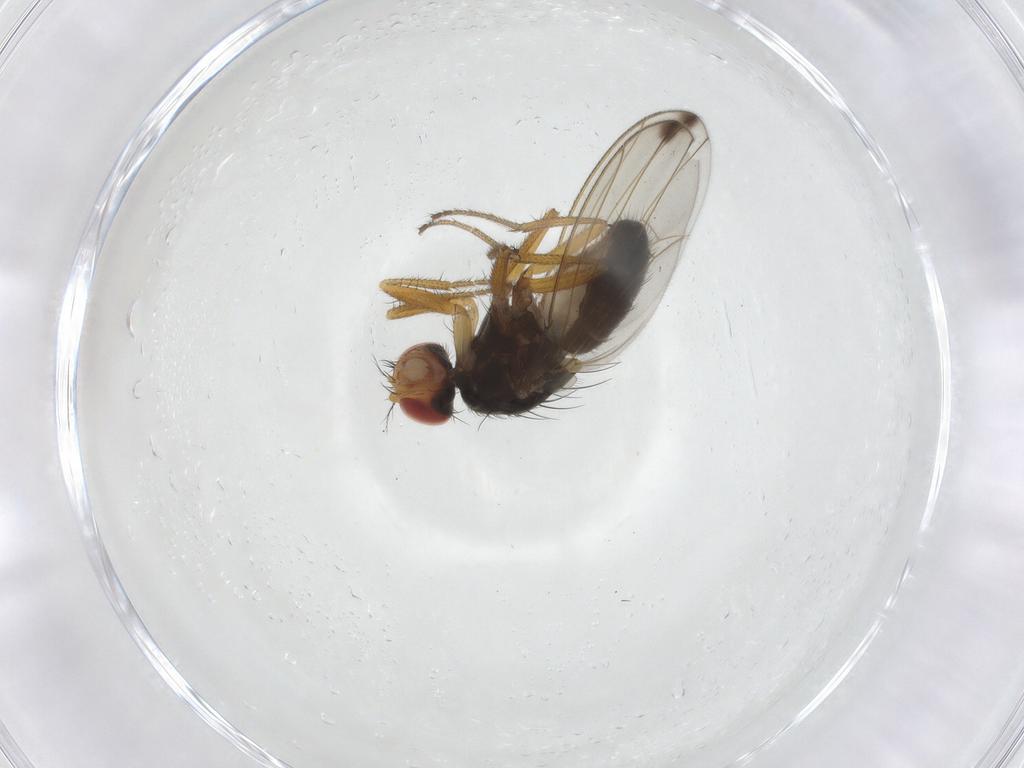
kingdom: Animalia
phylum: Arthropoda
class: Insecta
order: Diptera
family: Drosophilidae
